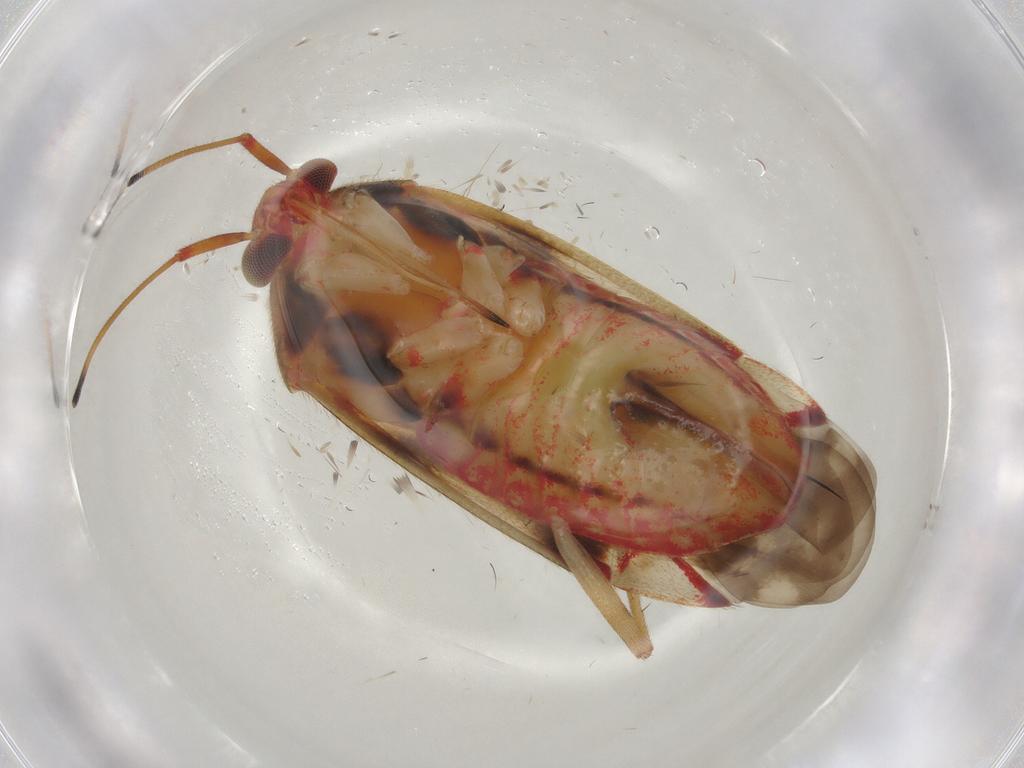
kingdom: Animalia
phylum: Arthropoda
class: Insecta
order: Hemiptera
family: Miridae
